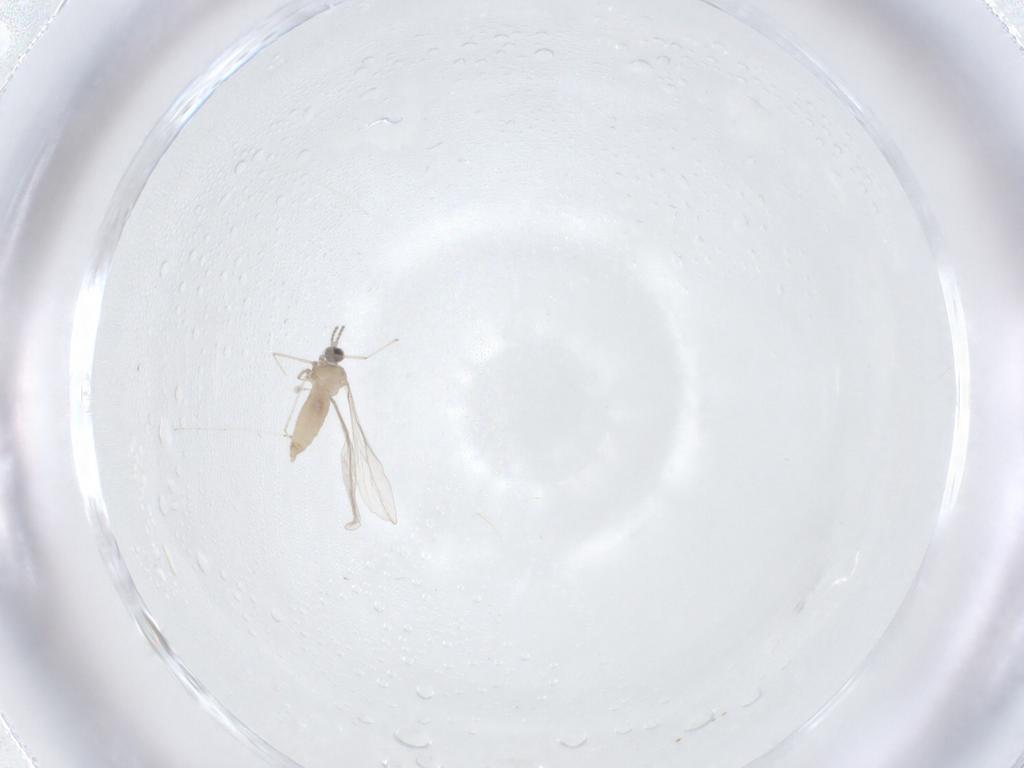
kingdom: Animalia
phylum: Arthropoda
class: Insecta
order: Diptera
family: Cecidomyiidae
